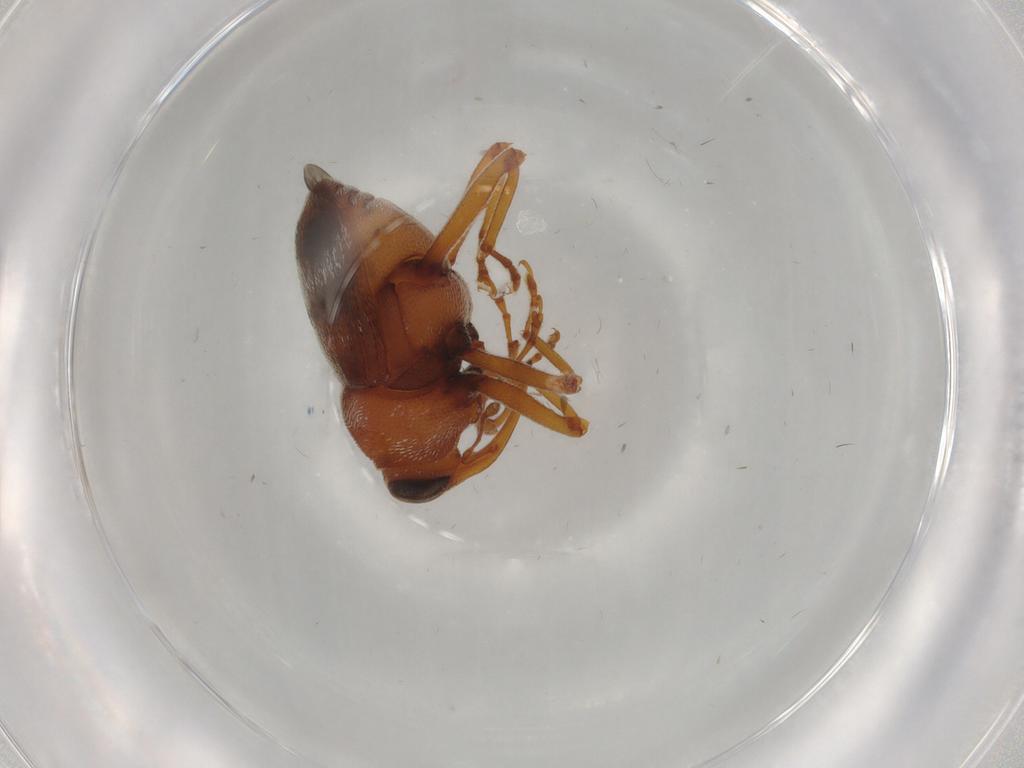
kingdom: Animalia
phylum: Arthropoda
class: Insecta
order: Coleoptera
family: Curculionidae
